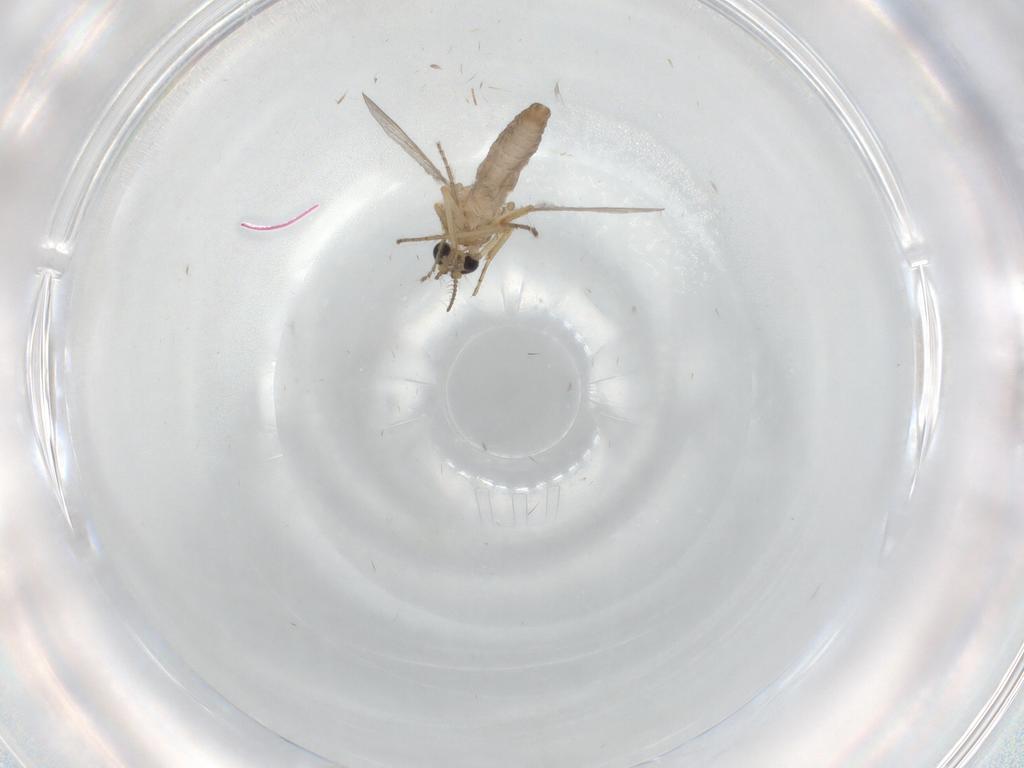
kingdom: Animalia
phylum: Arthropoda
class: Insecta
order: Diptera
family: Ceratopogonidae
